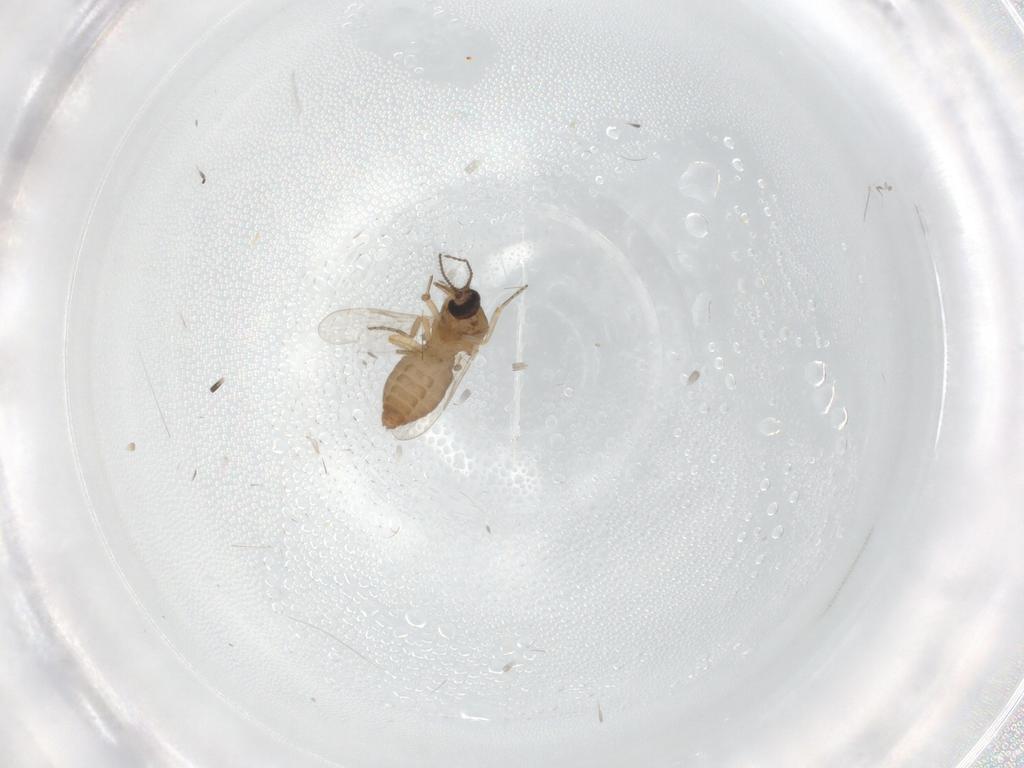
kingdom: Animalia
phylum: Arthropoda
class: Insecta
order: Diptera
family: Ceratopogonidae
